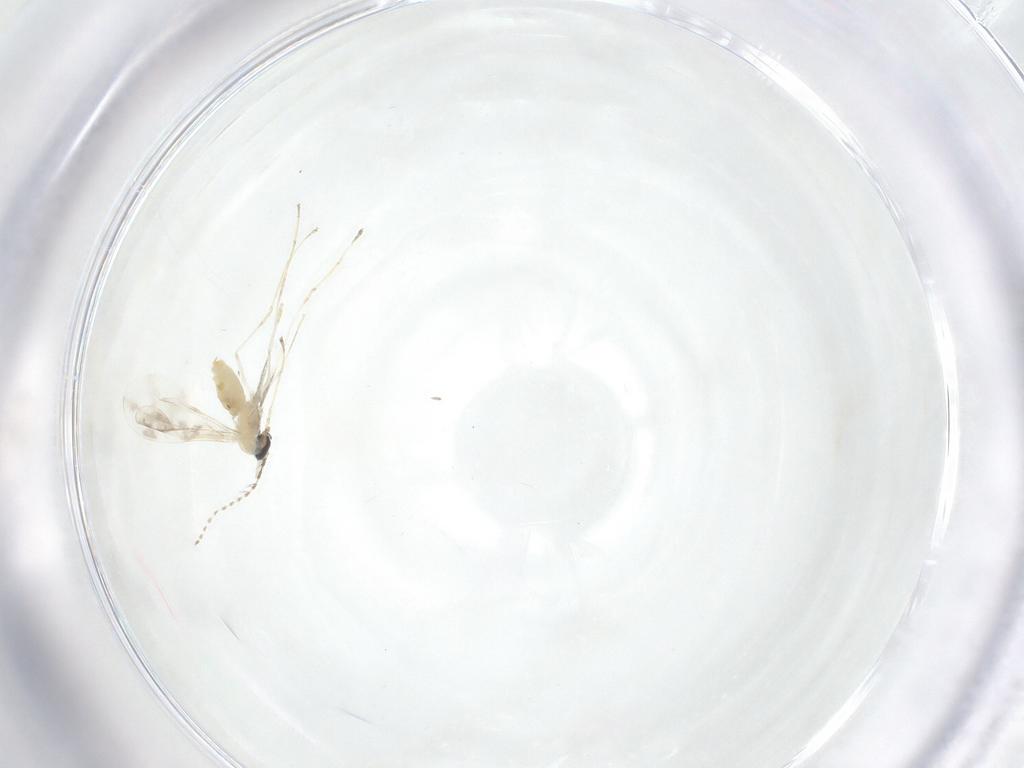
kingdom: Animalia
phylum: Arthropoda
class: Insecta
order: Diptera
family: Cecidomyiidae
